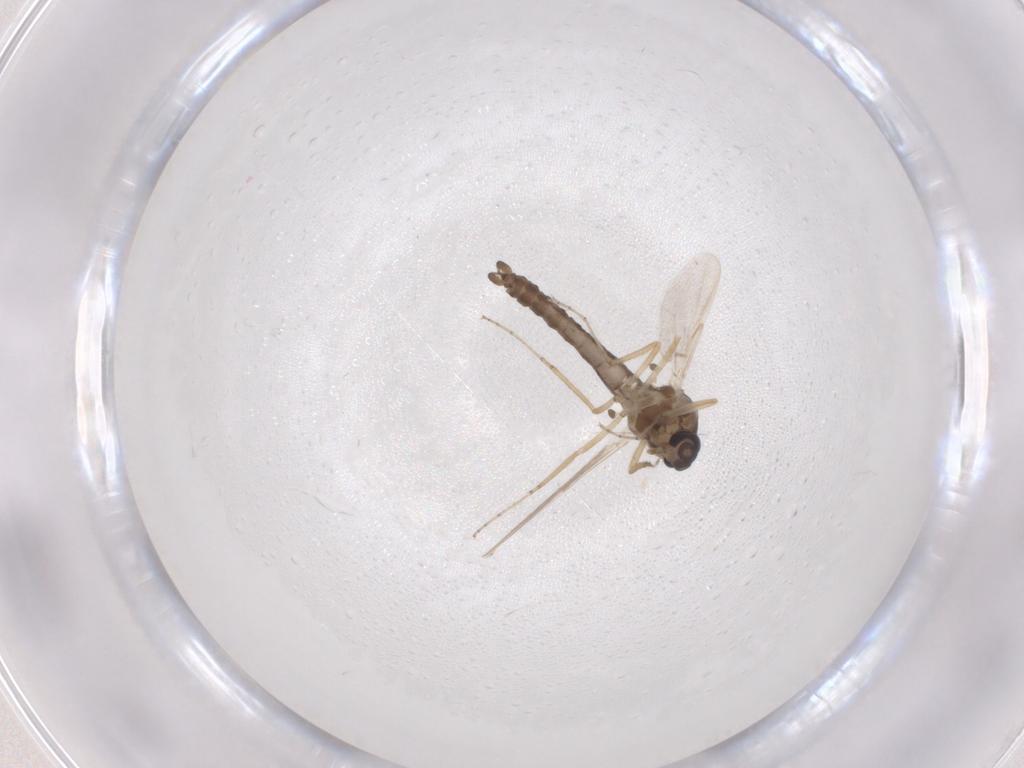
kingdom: Animalia
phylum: Arthropoda
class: Insecta
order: Diptera
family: Ceratopogonidae
